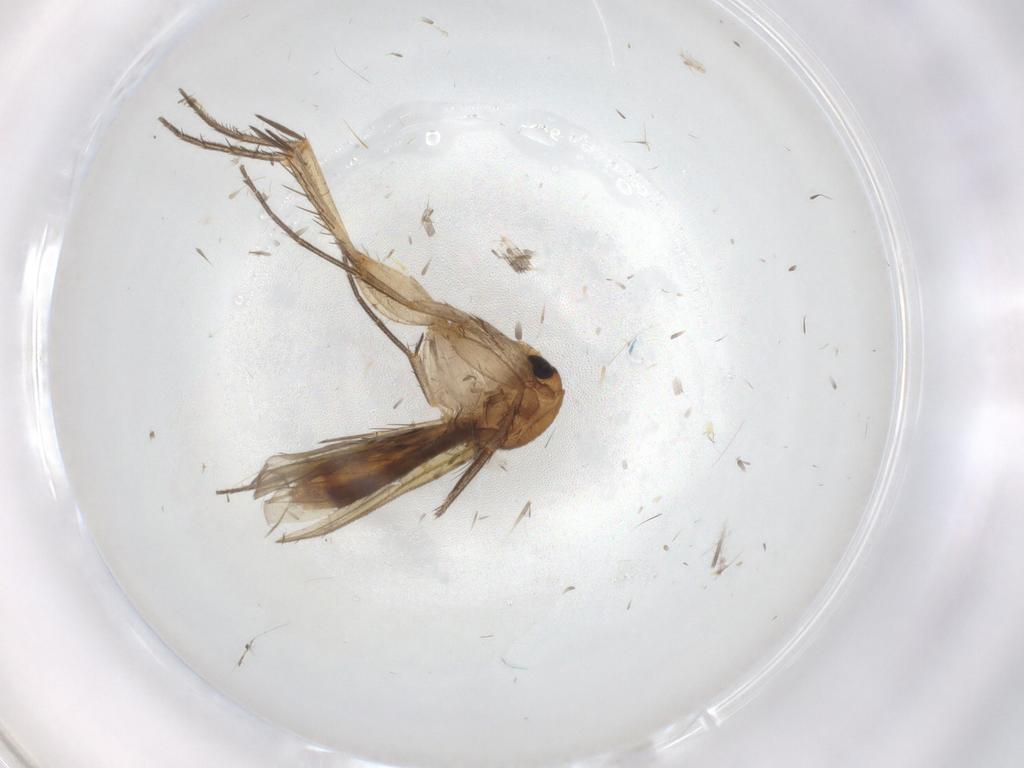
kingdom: Animalia
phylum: Arthropoda
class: Insecta
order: Diptera
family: Mycetophilidae
